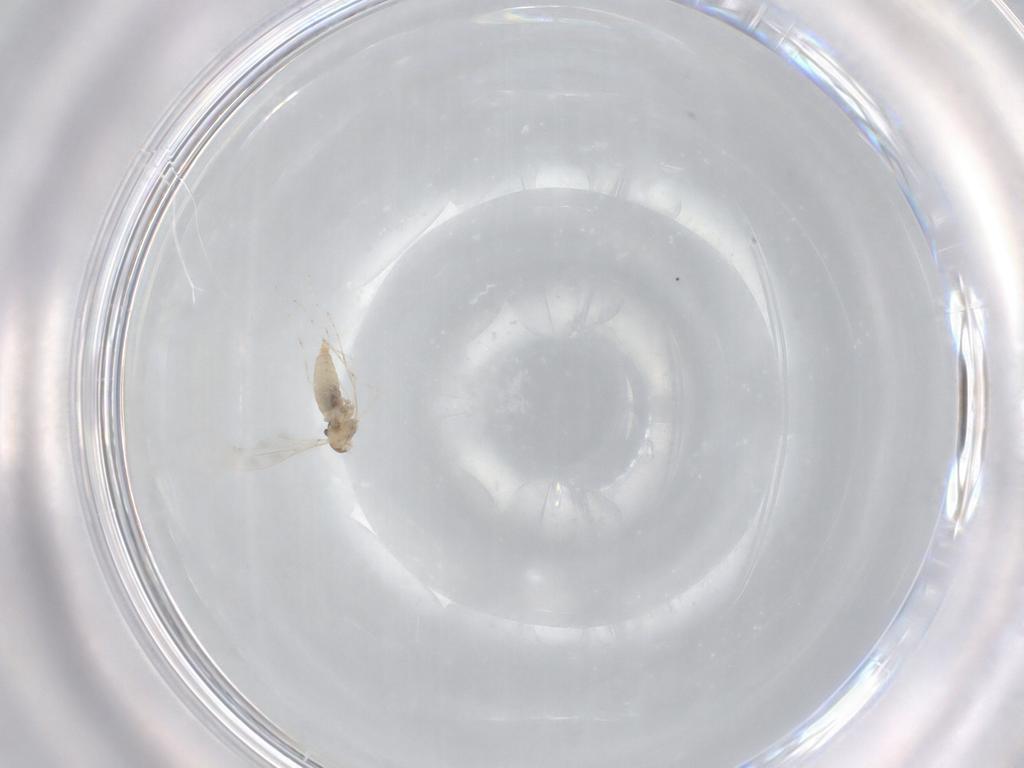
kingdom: Animalia
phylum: Arthropoda
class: Insecta
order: Diptera
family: Cecidomyiidae
